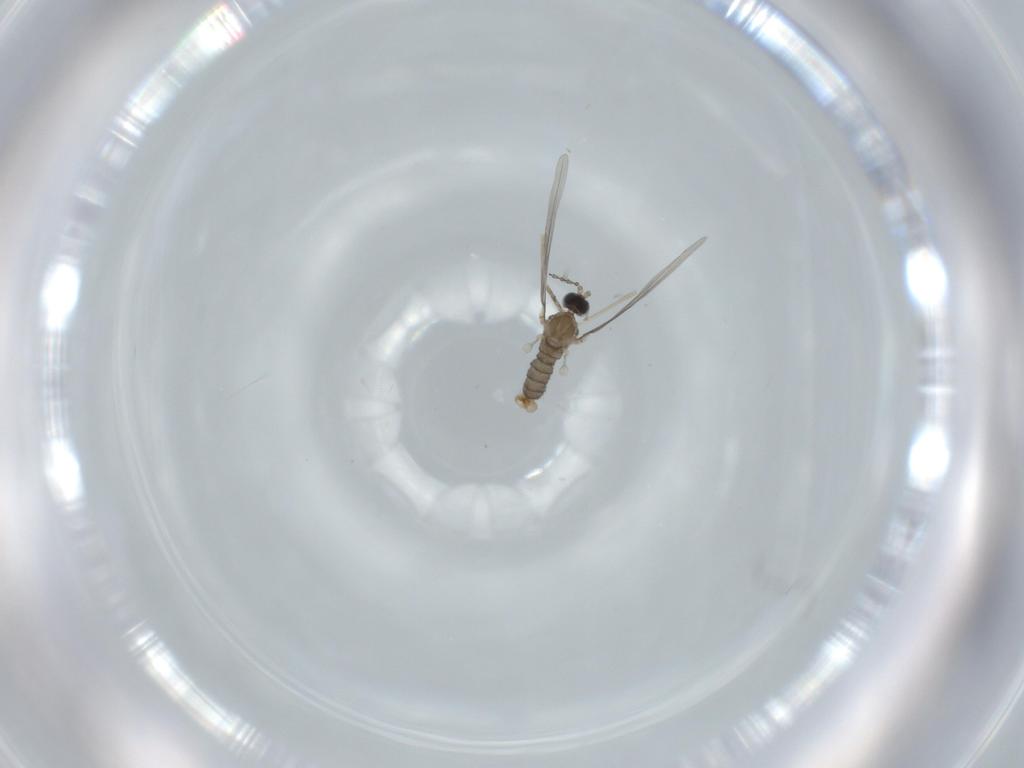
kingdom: Animalia
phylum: Arthropoda
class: Insecta
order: Diptera
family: Cecidomyiidae
